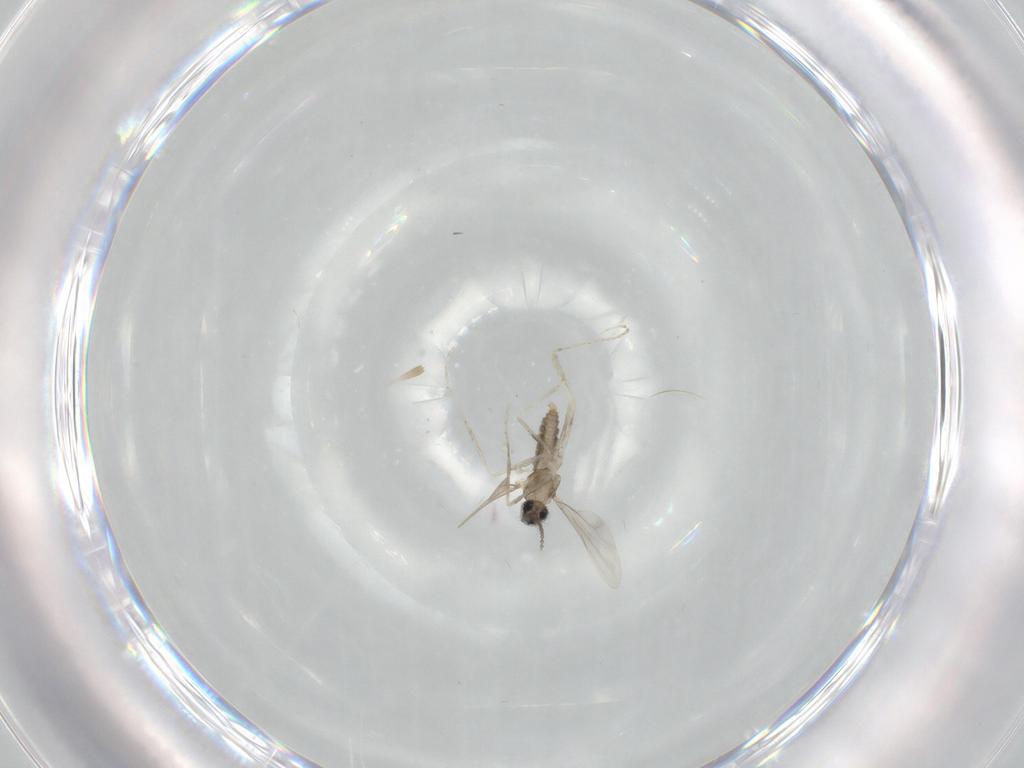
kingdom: Animalia
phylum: Arthropoda
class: Insecta
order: Diptera
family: Cecidomyiidae
